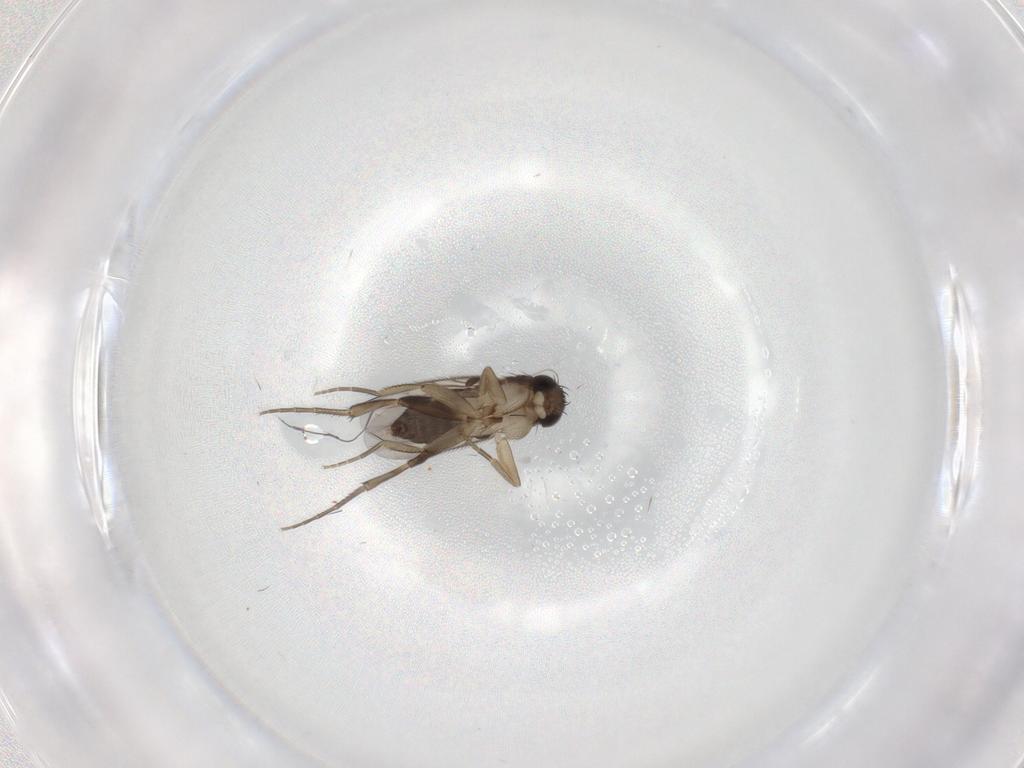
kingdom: Animalia
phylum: Arthropoda
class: Insecta
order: Diptera
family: Phoridae
